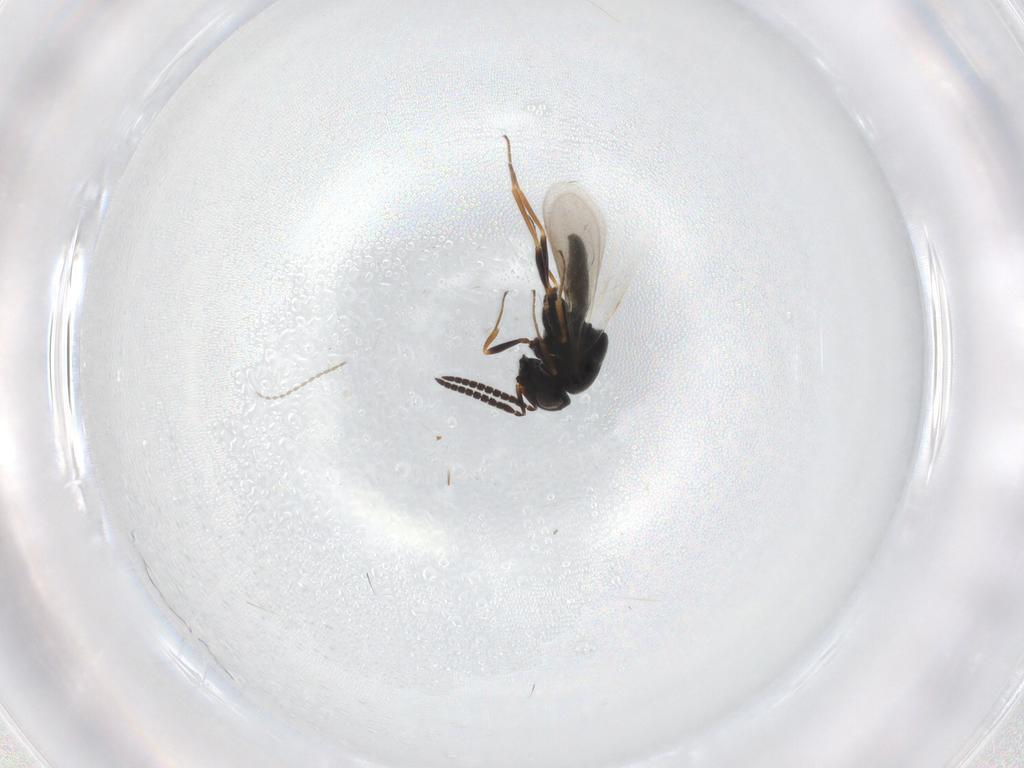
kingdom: Animalia
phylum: Arthropoda
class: Insecta
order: Hymenoptera
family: Scelionidae
